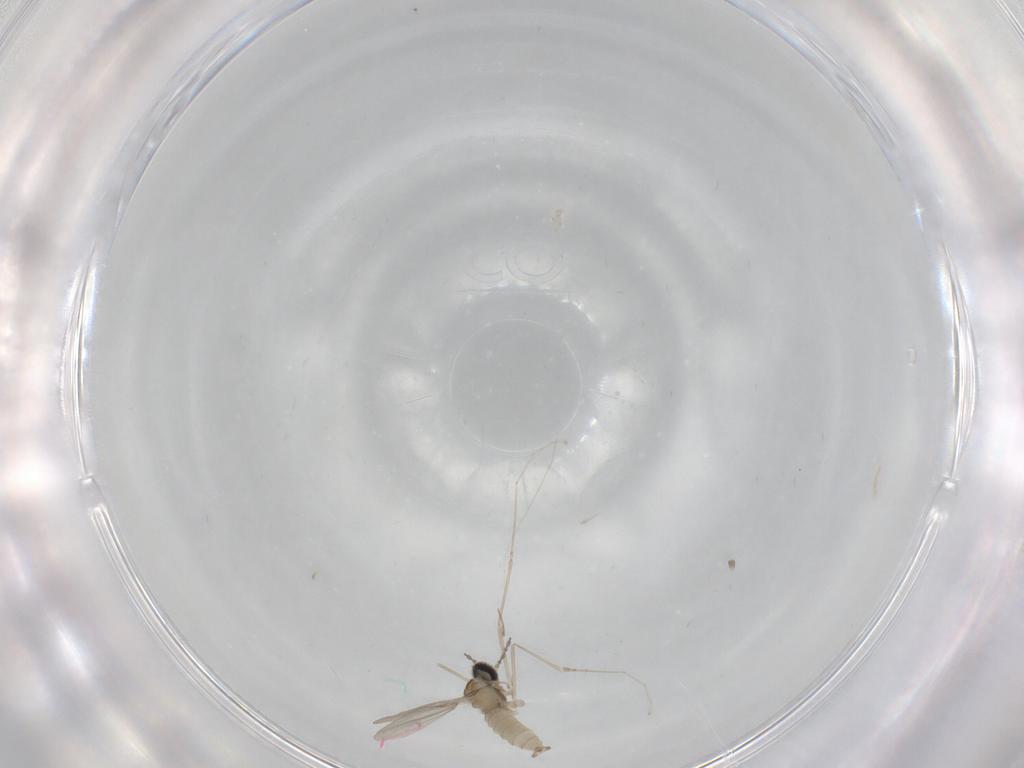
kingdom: Animalia
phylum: Arthropoda
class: Insecta
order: Diptera
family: Cecidomyiidae
